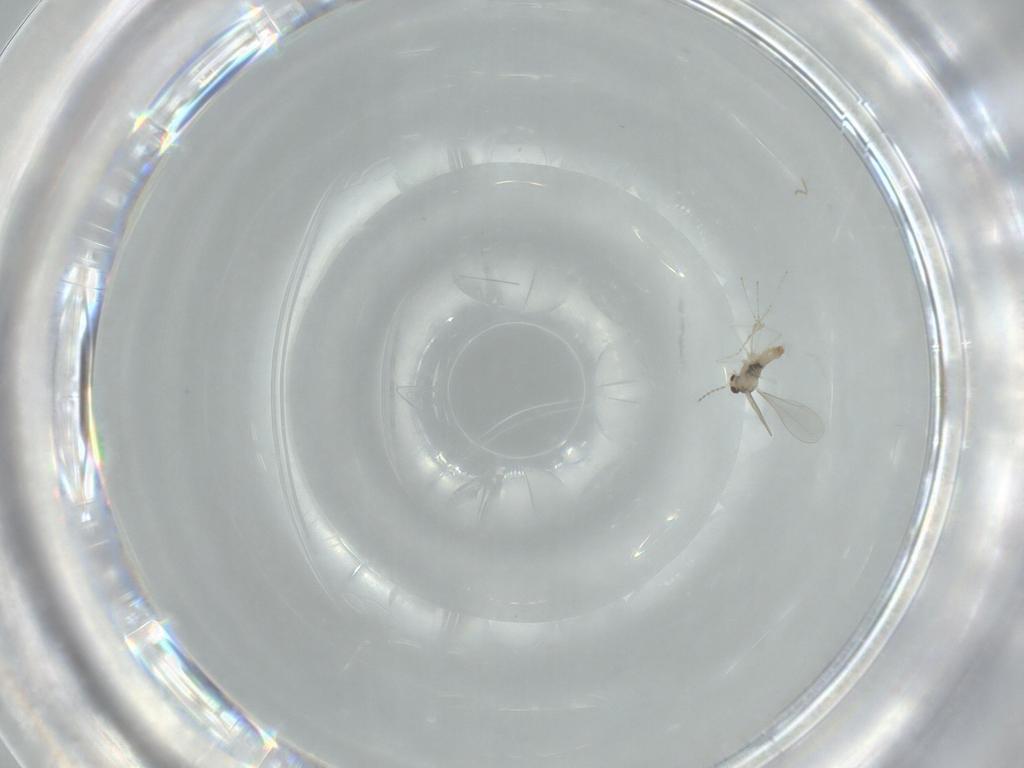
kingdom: Animalia
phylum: Arthropoda
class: Insecta
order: Diptera
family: Cecidomyiidae
